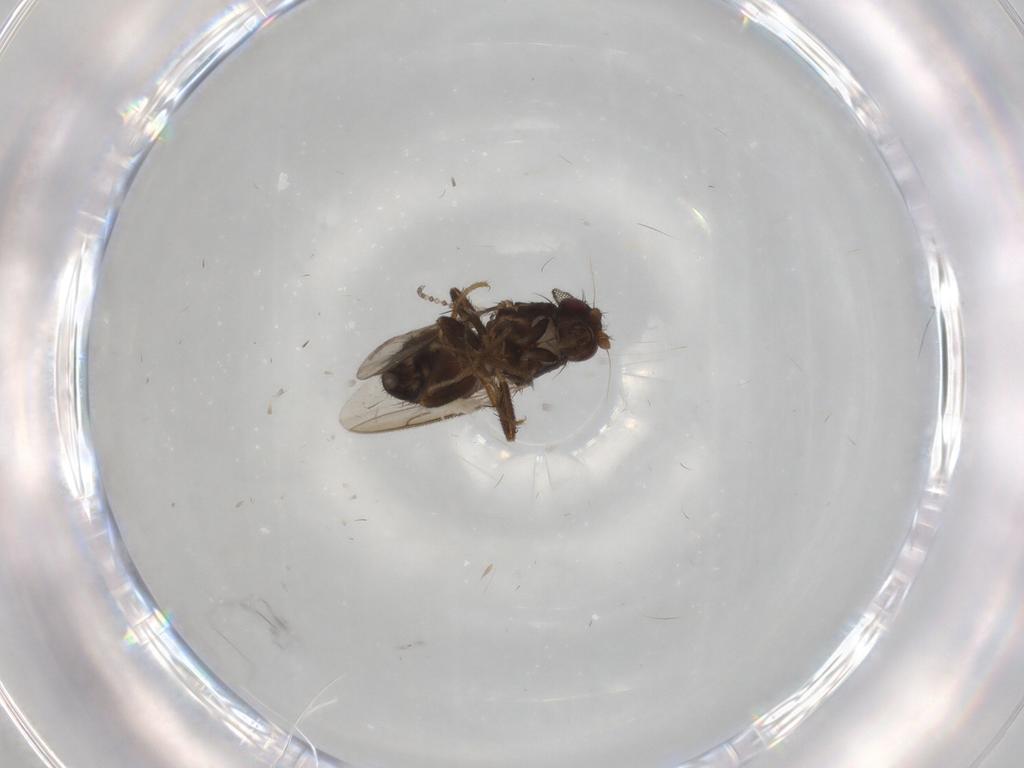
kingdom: Animalia
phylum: Arthropoda
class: Insecta
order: Diptera
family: Sphaeroceridae
